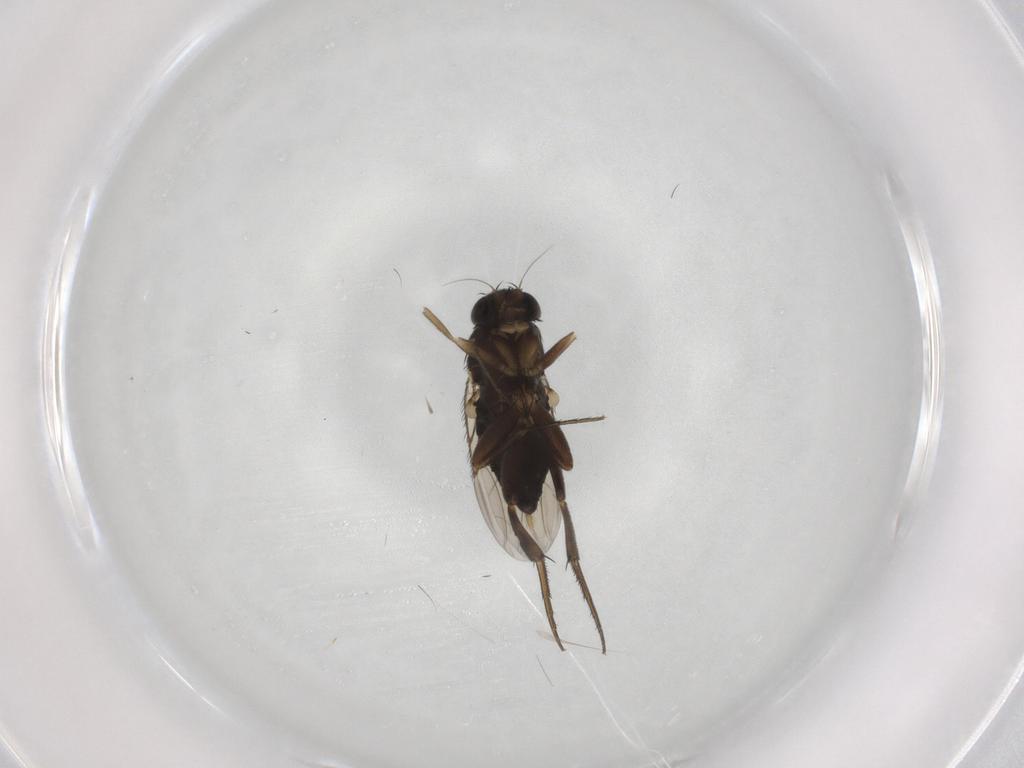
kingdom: Animalia
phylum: Arthropoda
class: Insecta
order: Diptera
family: Phoridae
